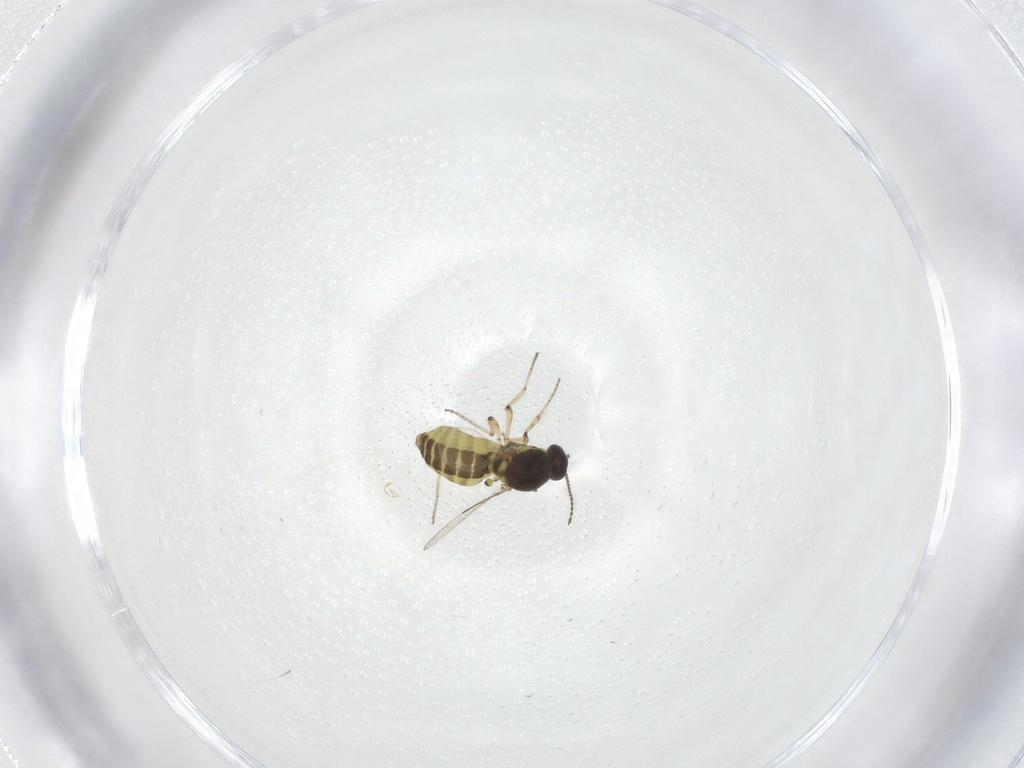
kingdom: Animalia
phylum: Arthropoda
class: Insecta
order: Diptera
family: Ceratopogonidae
